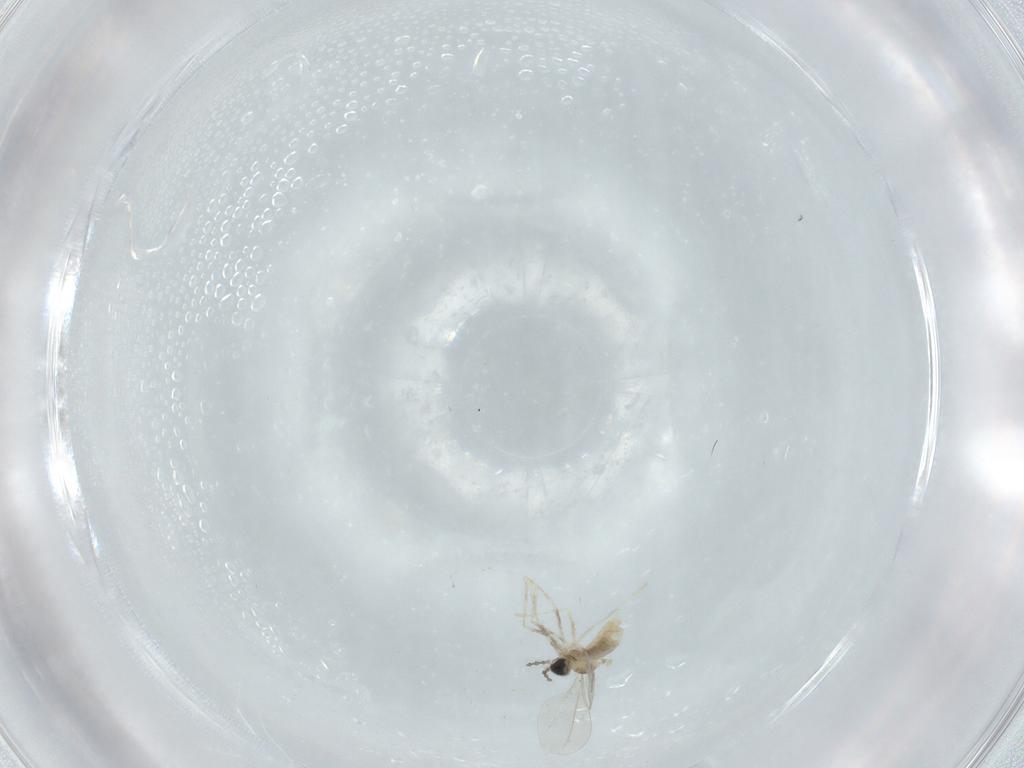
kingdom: Animalia
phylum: Arthropoda
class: Insecta
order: Diptera
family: Cecidomyiidae
